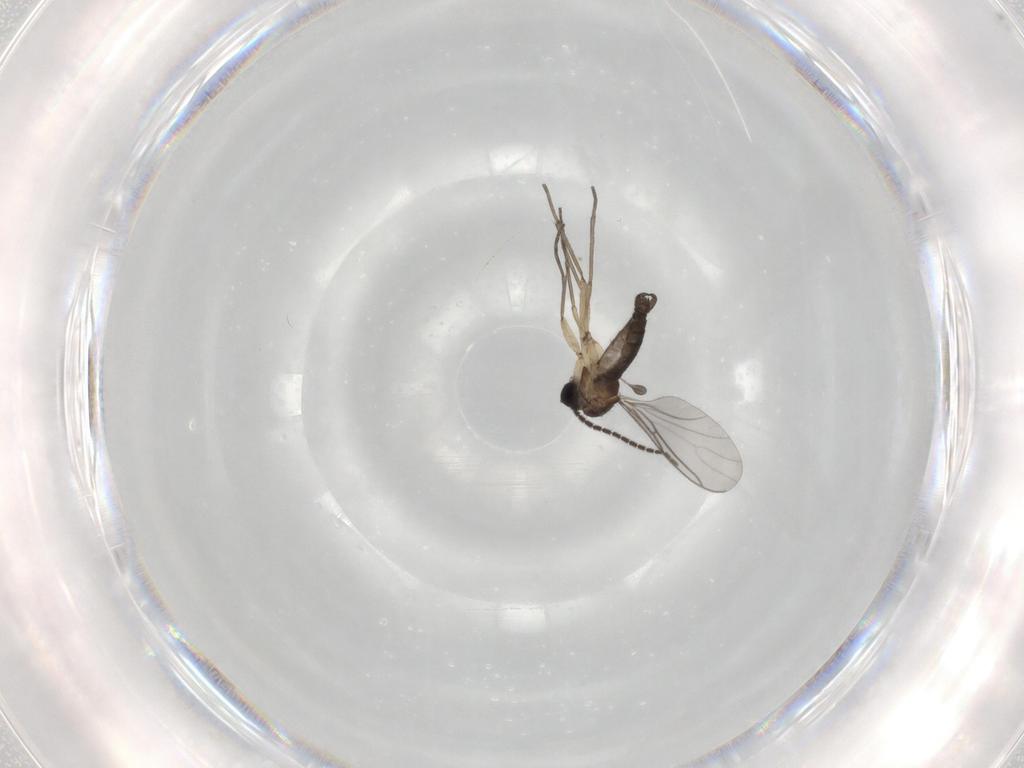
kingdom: Animalia
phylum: Arthropoda
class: Insecta
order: Diptera
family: Sciaridae
